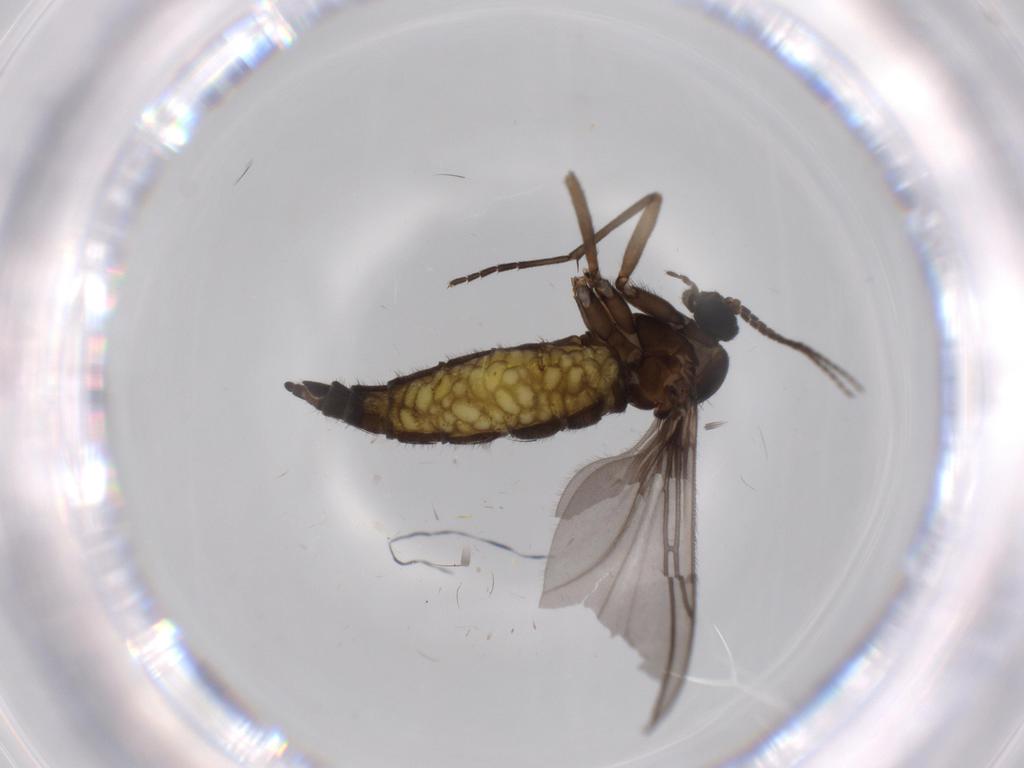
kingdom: Animalia
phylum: Arthropoda
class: Insecta
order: Diptera
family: Sciaridae
